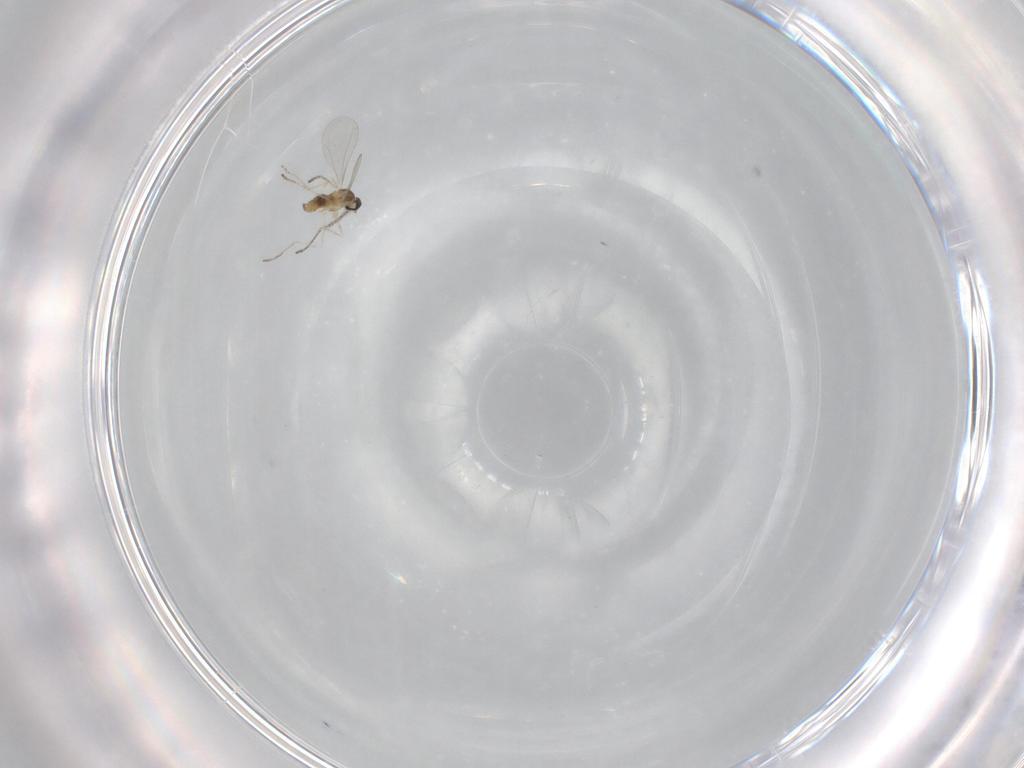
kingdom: Animalia
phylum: Arthropoda
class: Insecta
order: Diptera
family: Cecidomyiidae
